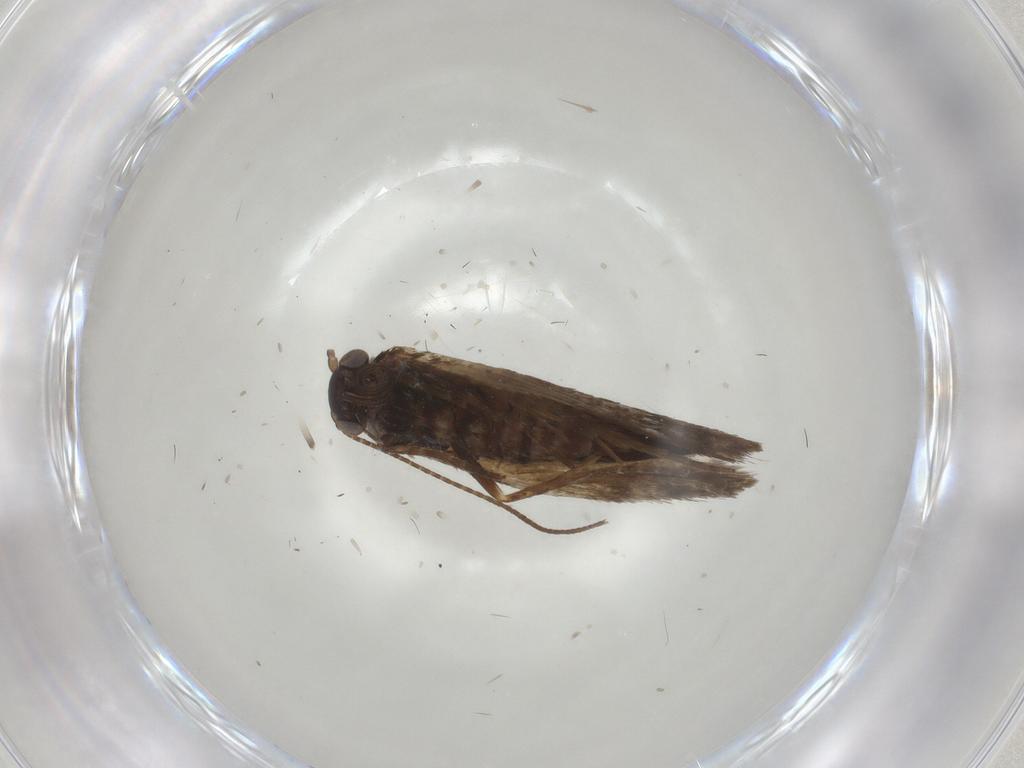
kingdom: Animalia
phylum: Arthropoda
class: Insecta
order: Lepidoptera
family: Adelidae
